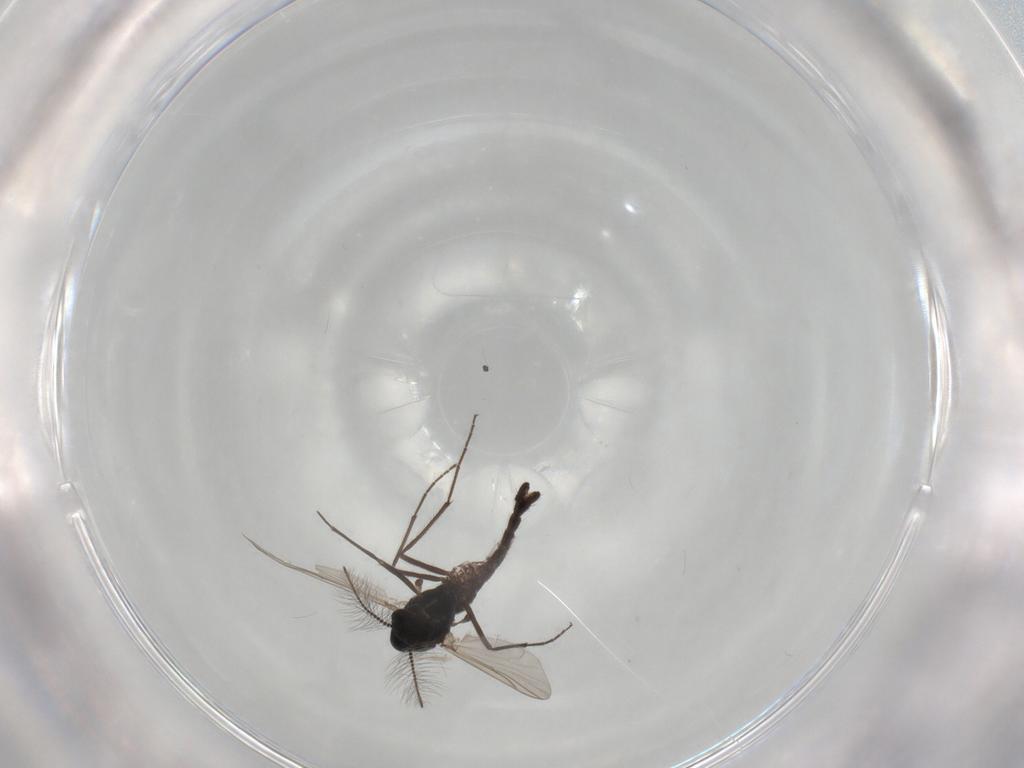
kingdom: Animalia
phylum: Arthropoda
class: Insecta
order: Diptera
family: Chironomidae
